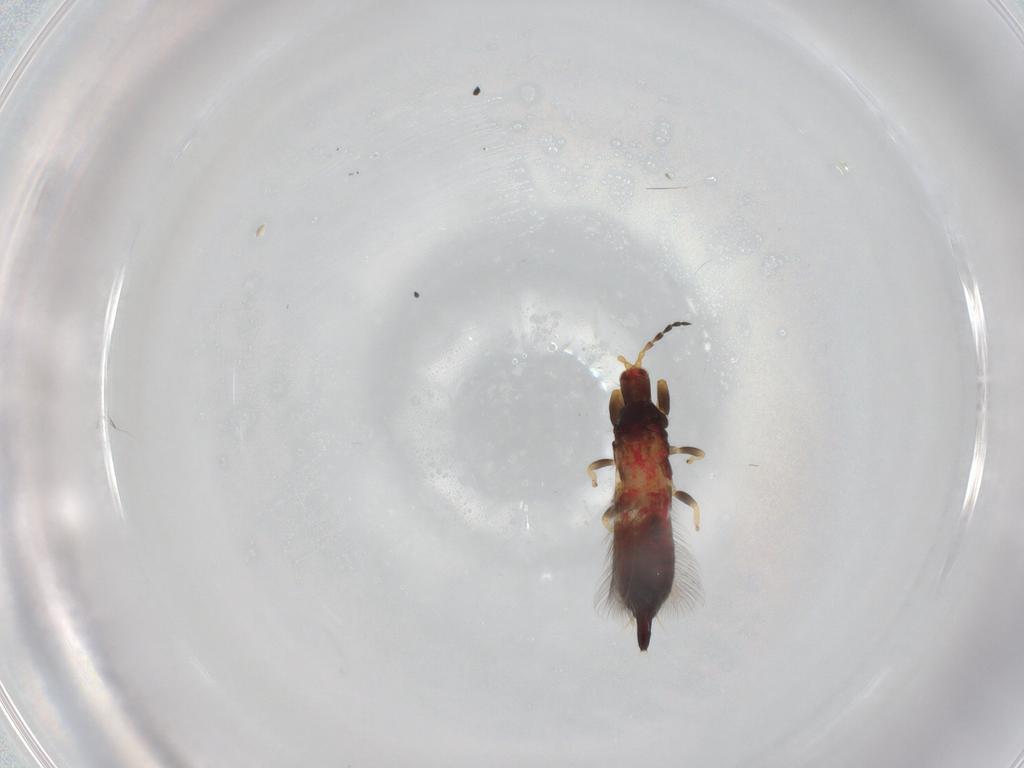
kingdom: Animalia
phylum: Arthropoda
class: Insecta
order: Thysanoptera
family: Phlaeothripidae
